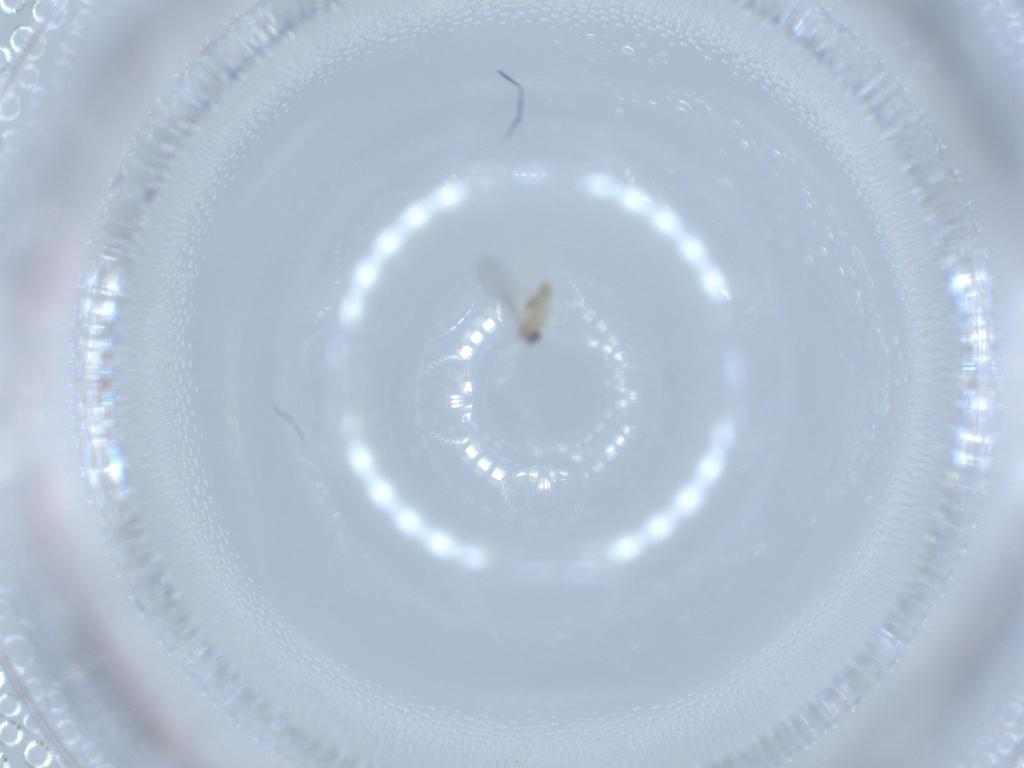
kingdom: Animalia
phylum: Arthropoda
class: Insecta
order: Diptera
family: Cecidomyiidae
